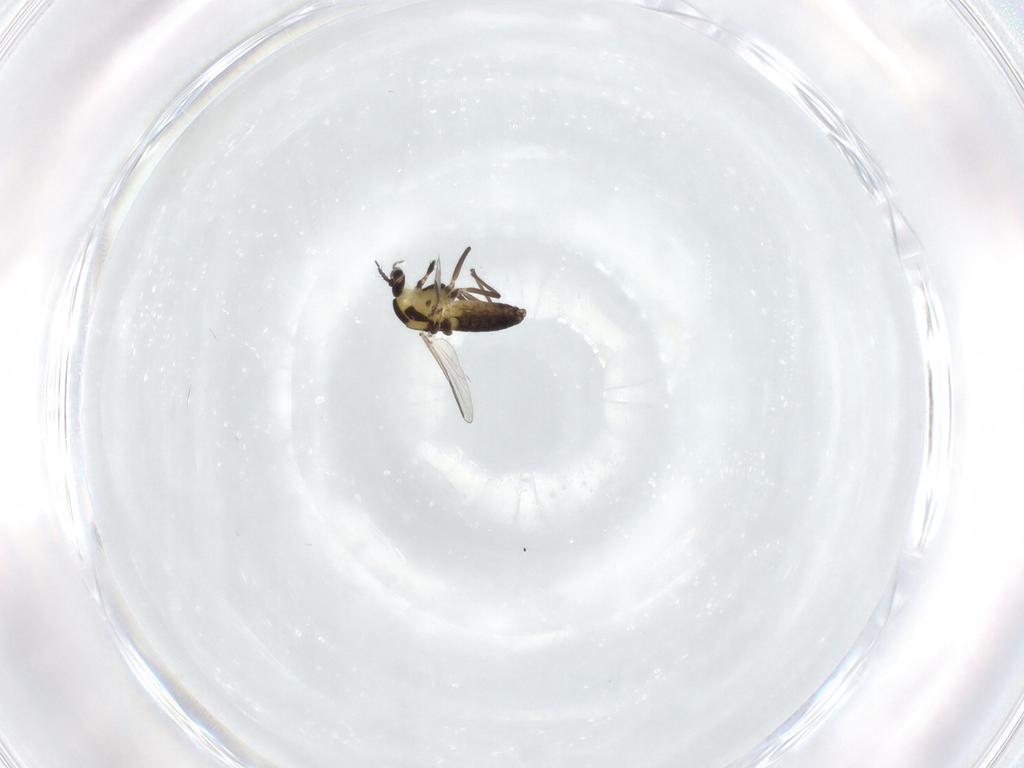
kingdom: Animalia
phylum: Arthropoda
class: Insecta
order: Diptera
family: Chironomidae
